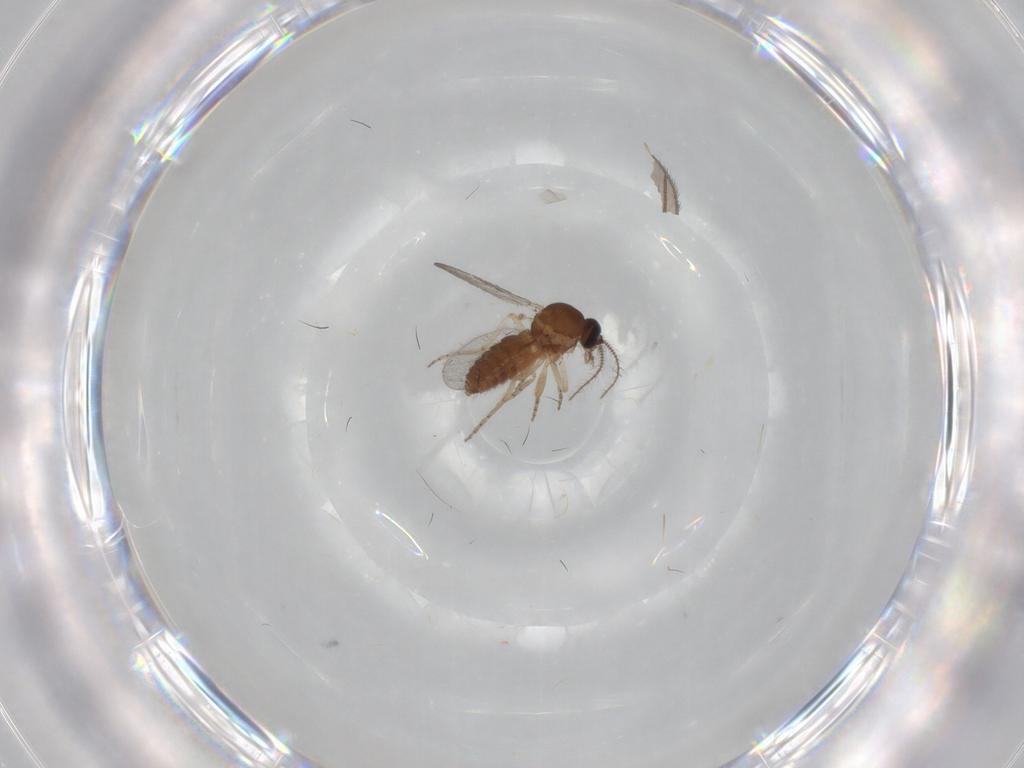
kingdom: Animalia
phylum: Arthropoda
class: Insecta
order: Diptera
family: Ceratopogonidae
